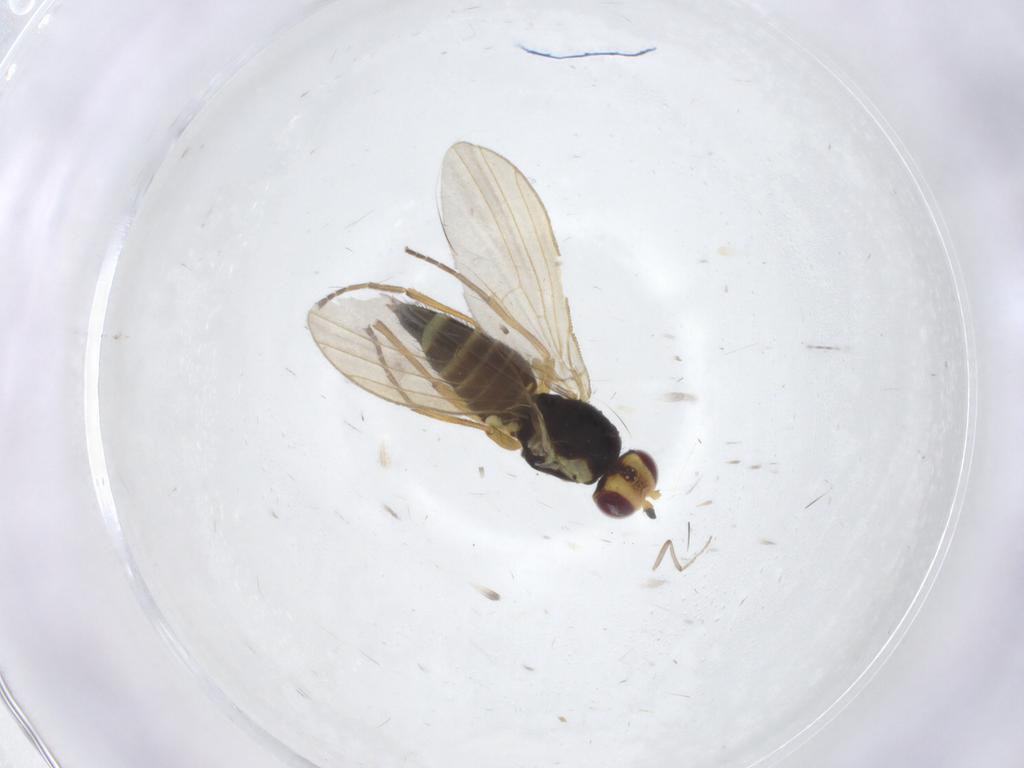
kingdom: Animalia
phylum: Arthropoda
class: Insecta
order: Diptera
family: Agromyzidae
